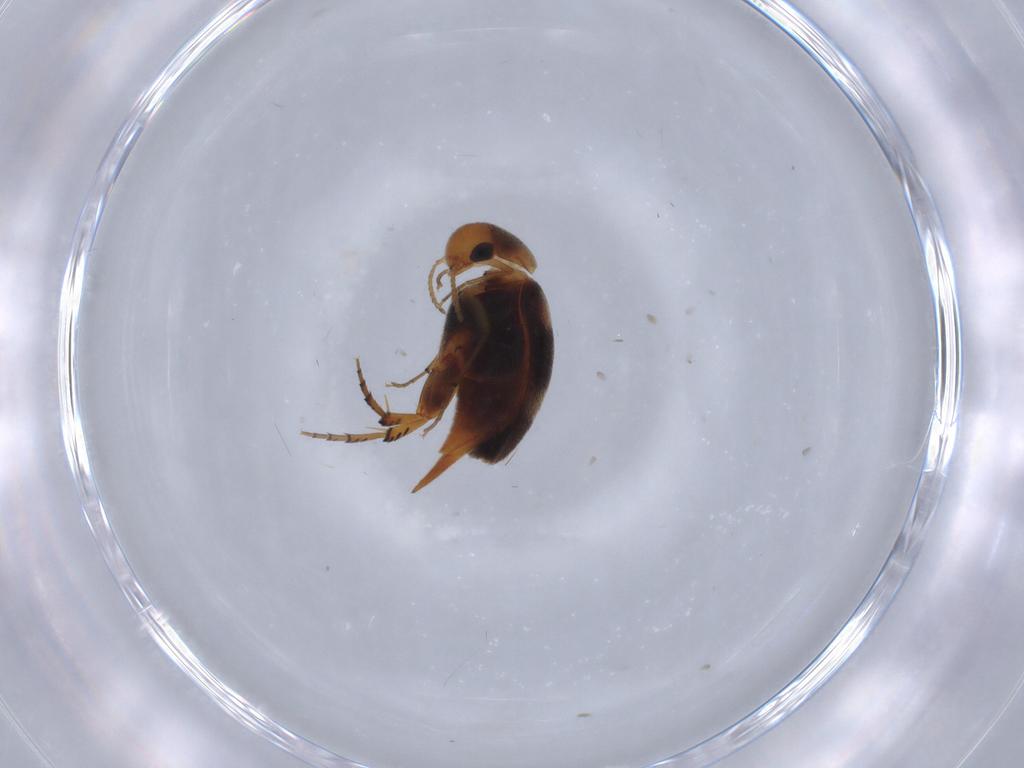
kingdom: Animalia
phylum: Arthropoda
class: Insecta
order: Coleoptera
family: Mordellidae
